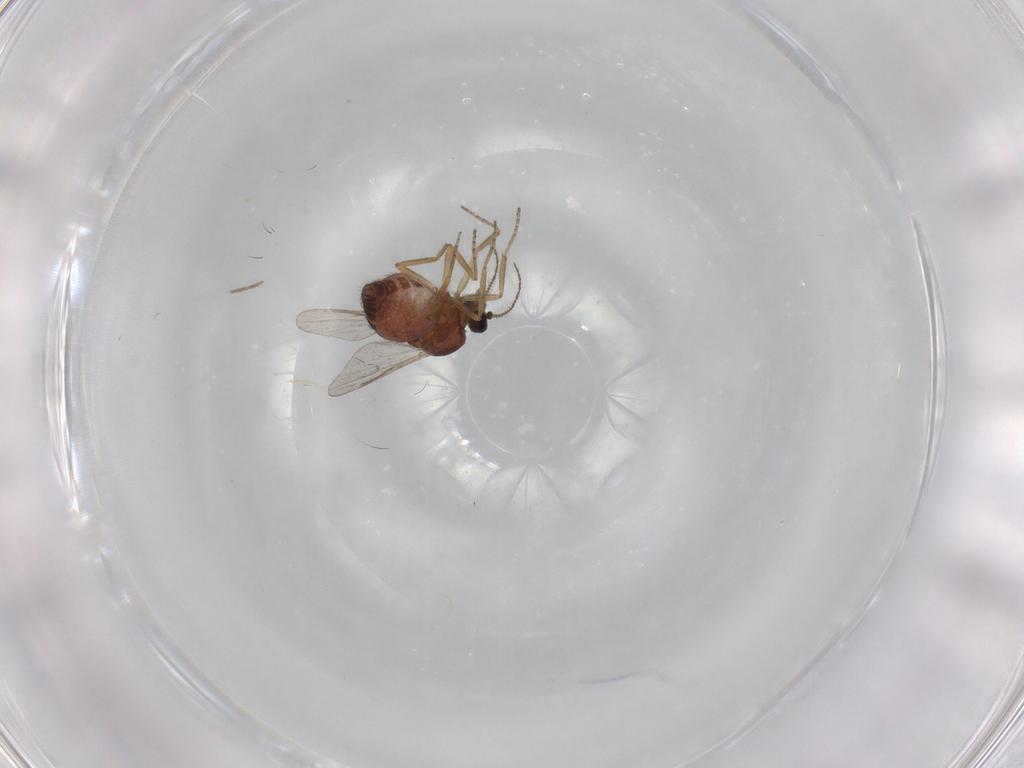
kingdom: Animalia
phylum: Arthropoda
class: Insecta
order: Diptera
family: Ceratopogonidae
